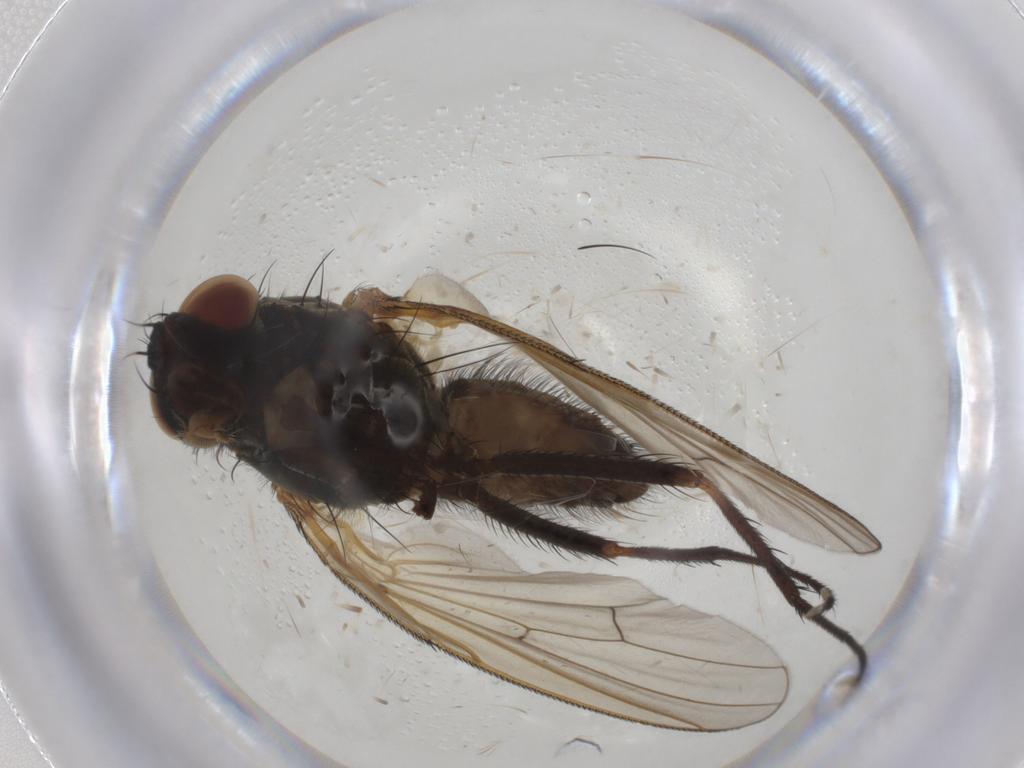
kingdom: Animalia
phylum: Arthropoda
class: Insecta
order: Diptera
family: Anthomyiidae
